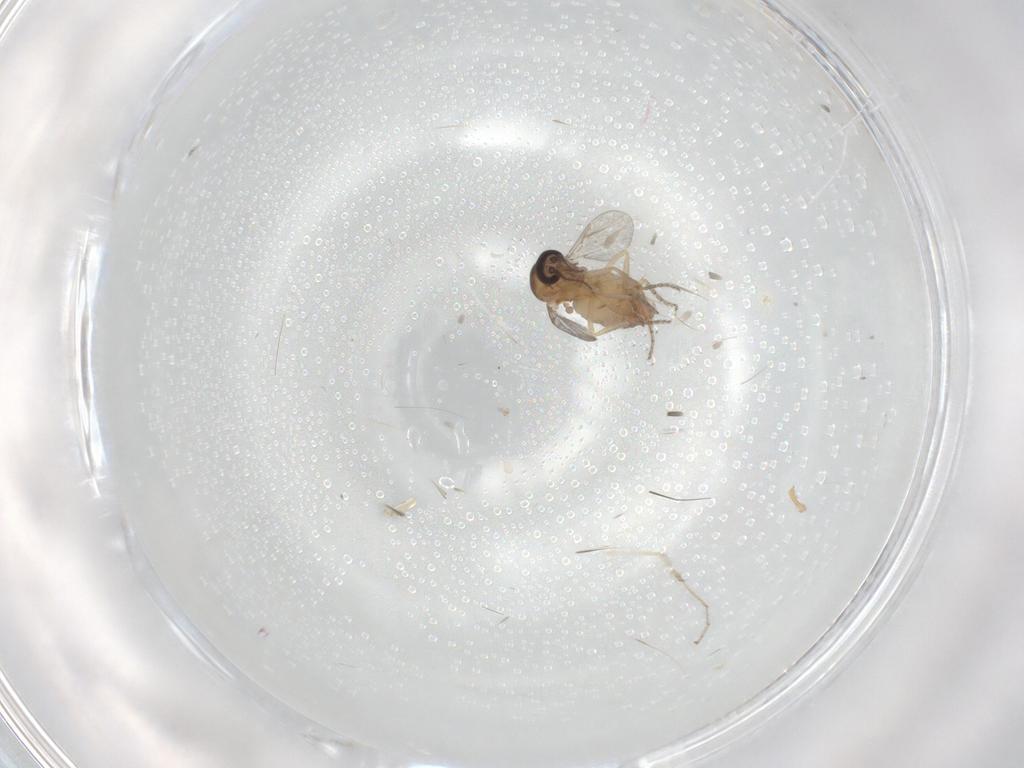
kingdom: Animalia
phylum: Arthropoda
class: Insecta
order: Diptera
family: Ceratopogonidae
